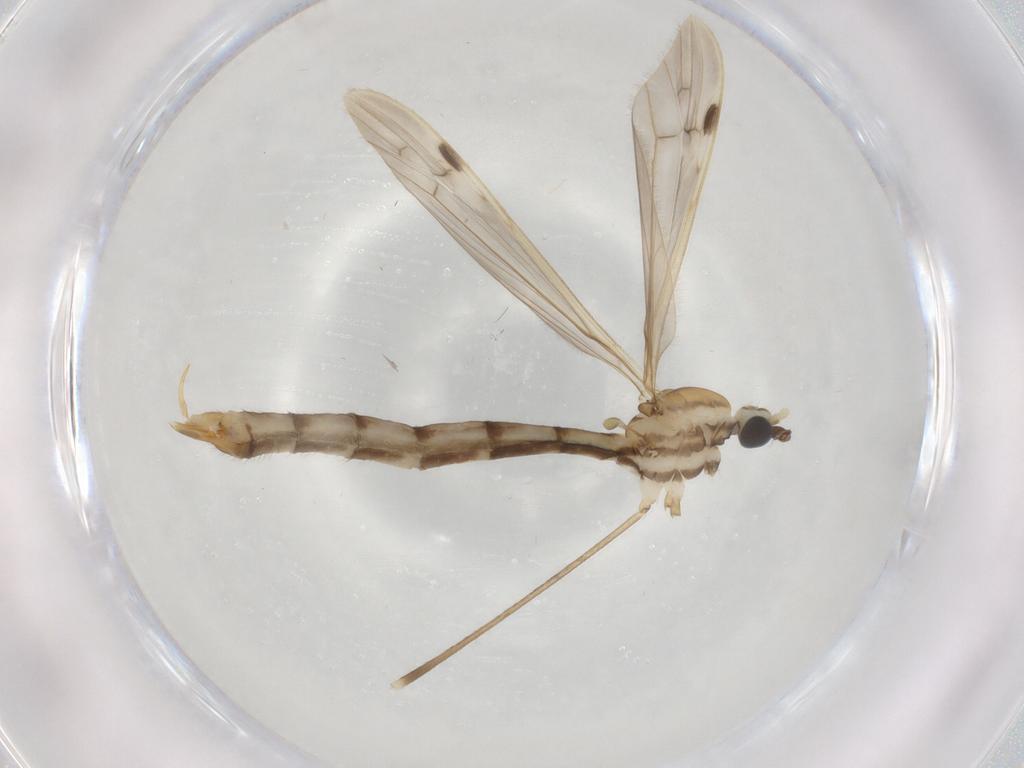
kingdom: Animalia
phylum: Arthropoda
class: Insecta
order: Diptera
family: Limoniidae
